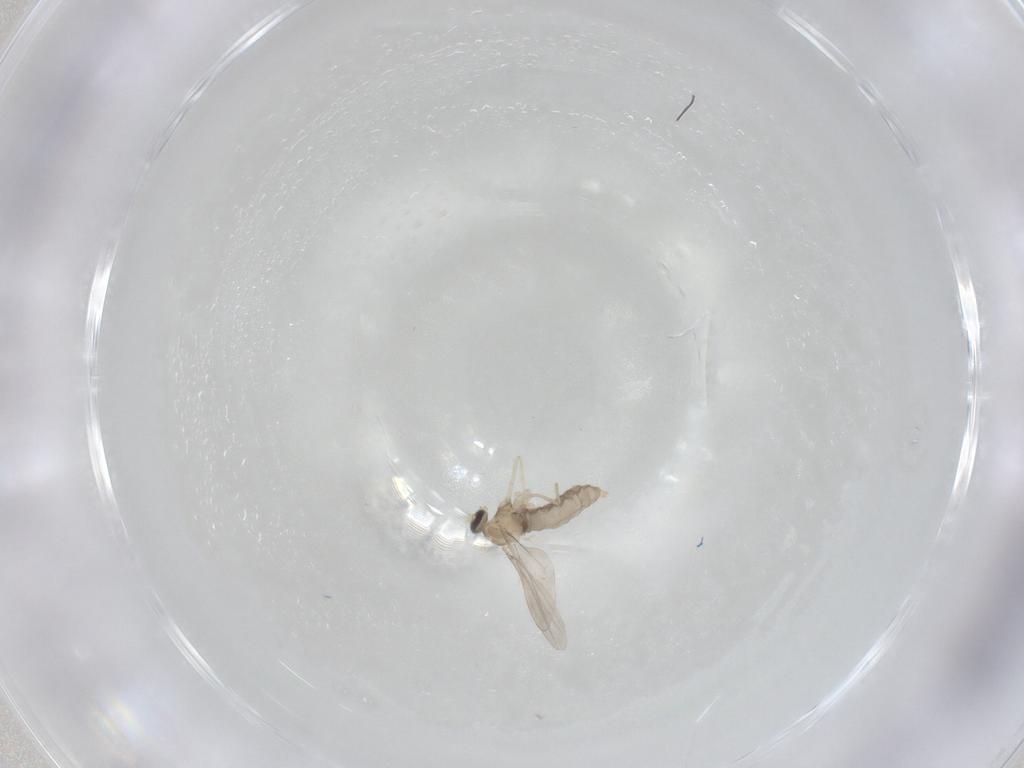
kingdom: Animalia
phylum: Arthropoda
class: Insecta
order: Diptera
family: Cecidomyiidae
